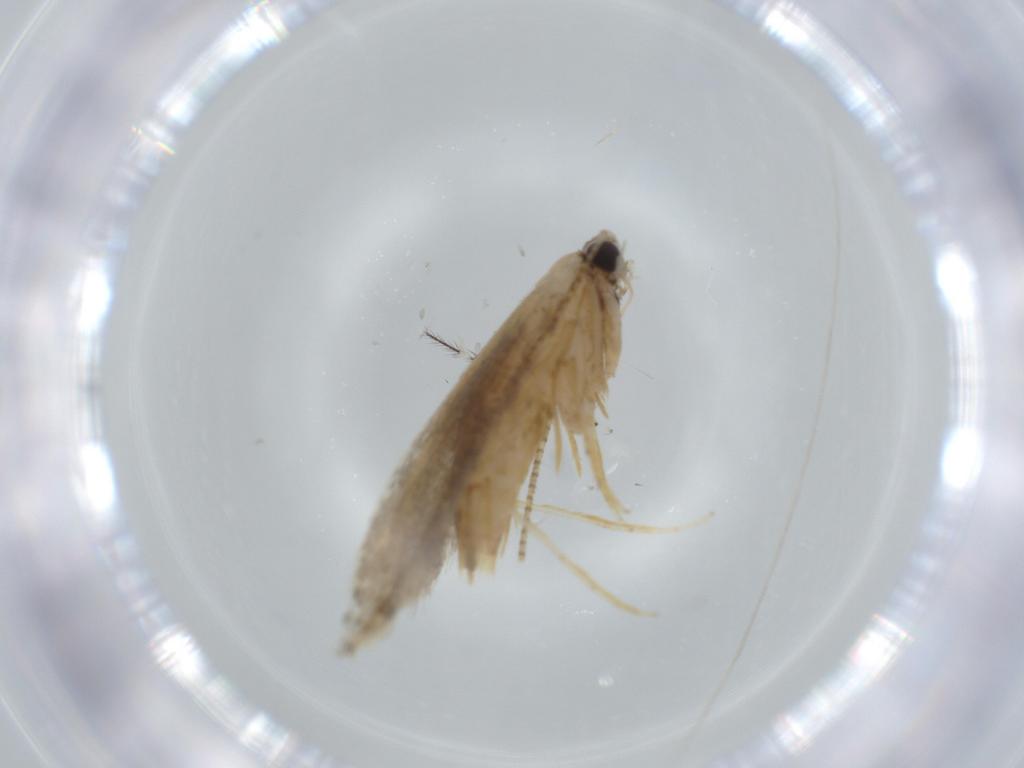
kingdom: Animalia
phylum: Arthropoda
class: Insecta
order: Lepidoptera
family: Tineidae
